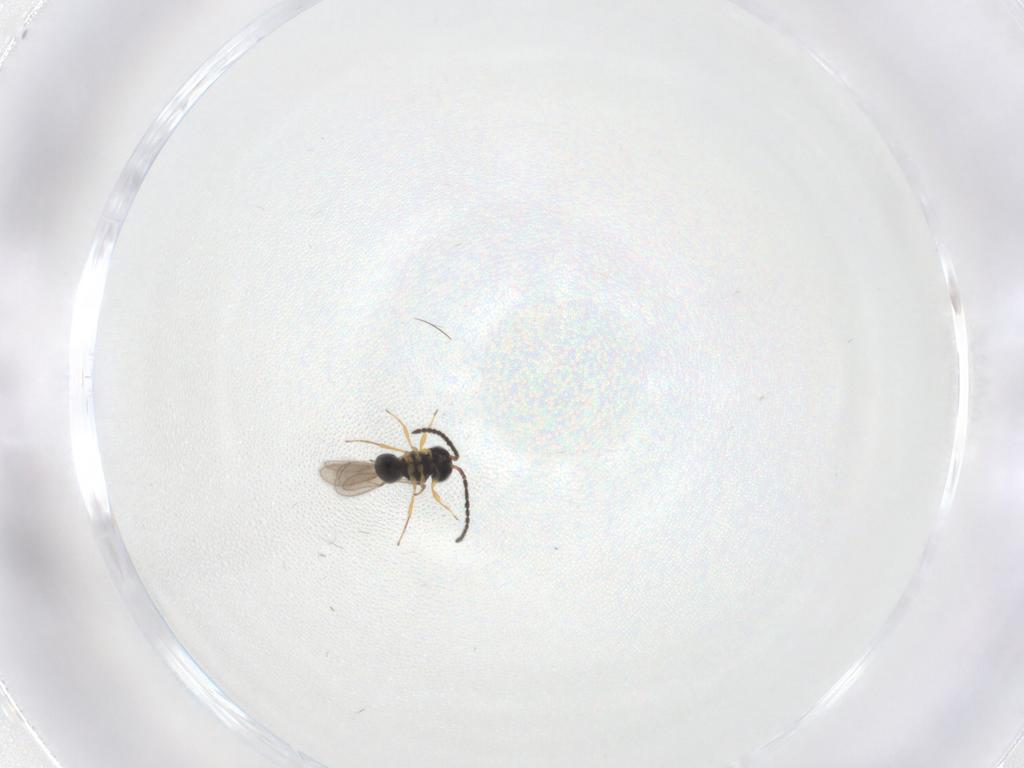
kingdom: Animalia
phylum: Arthropoda
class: Insecta
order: Hymenoptera
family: Scelionidae
